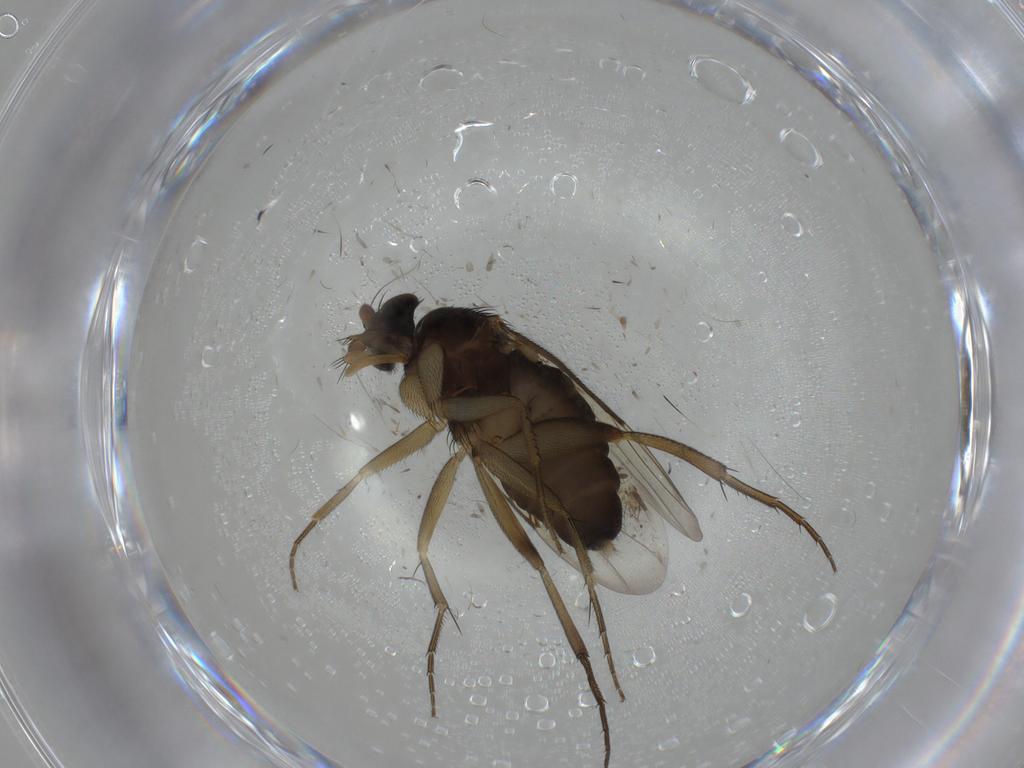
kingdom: Animalia
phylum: Arthropoda
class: Insecta
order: Diptera
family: Phoridae
